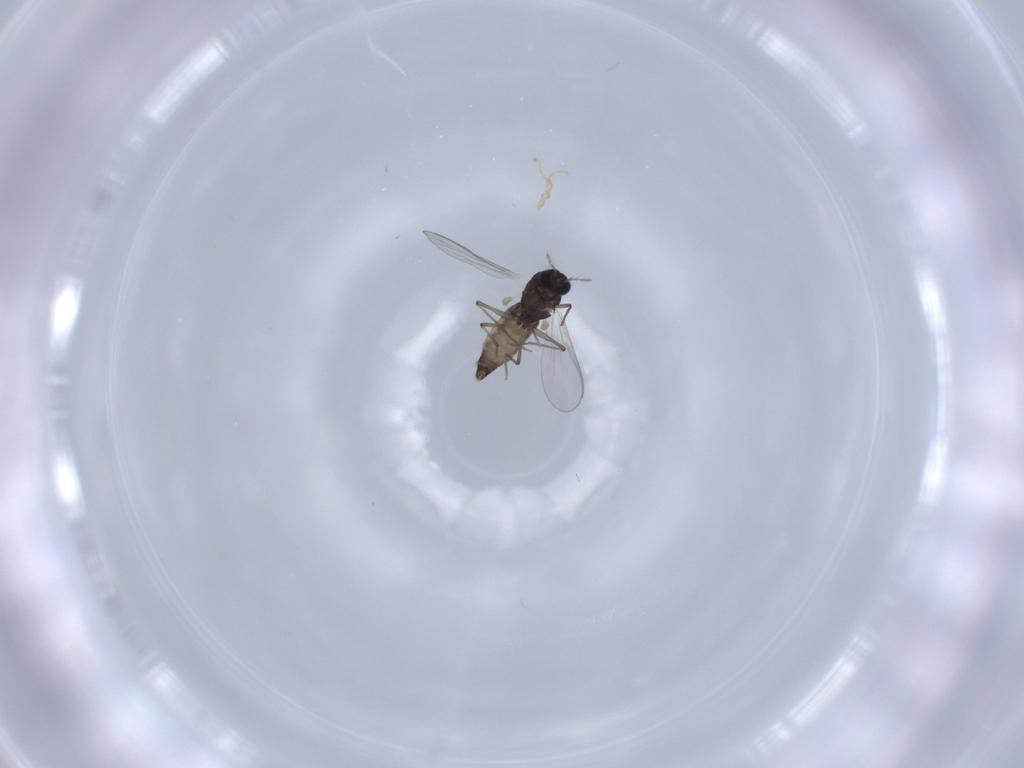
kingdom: Animalia
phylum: Arthropoda
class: Insecta
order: Diptera
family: Chironomidae
